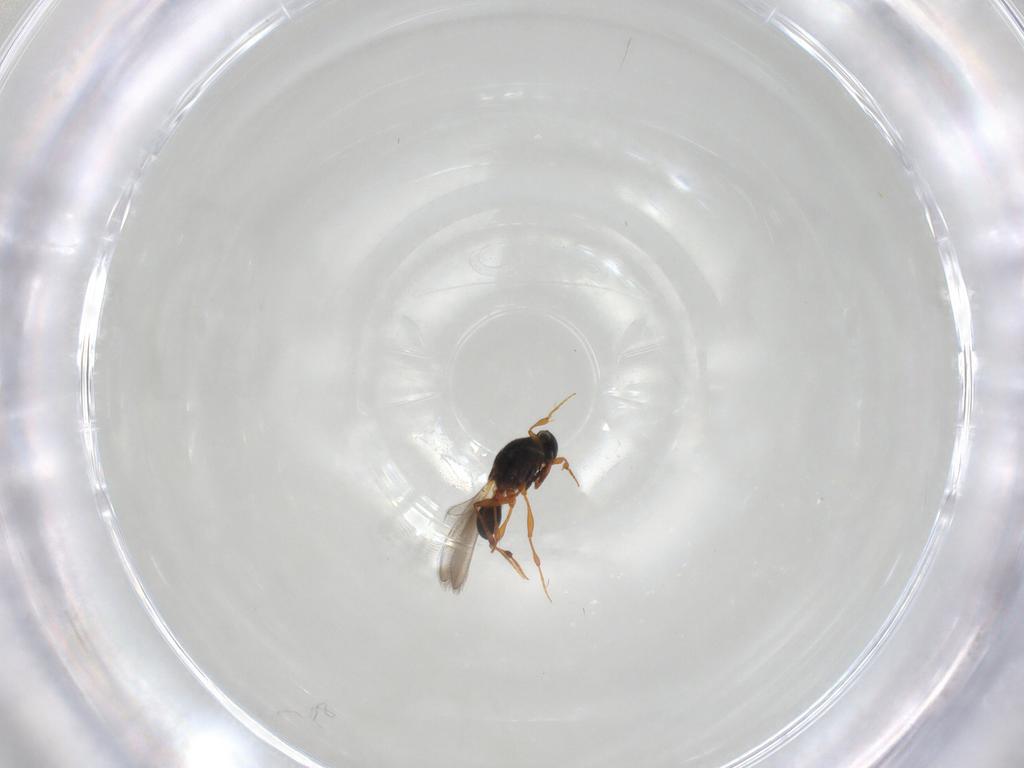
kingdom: Animalia
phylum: Arthropoda
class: Insecta
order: Hymenoptera
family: Platygastridae
